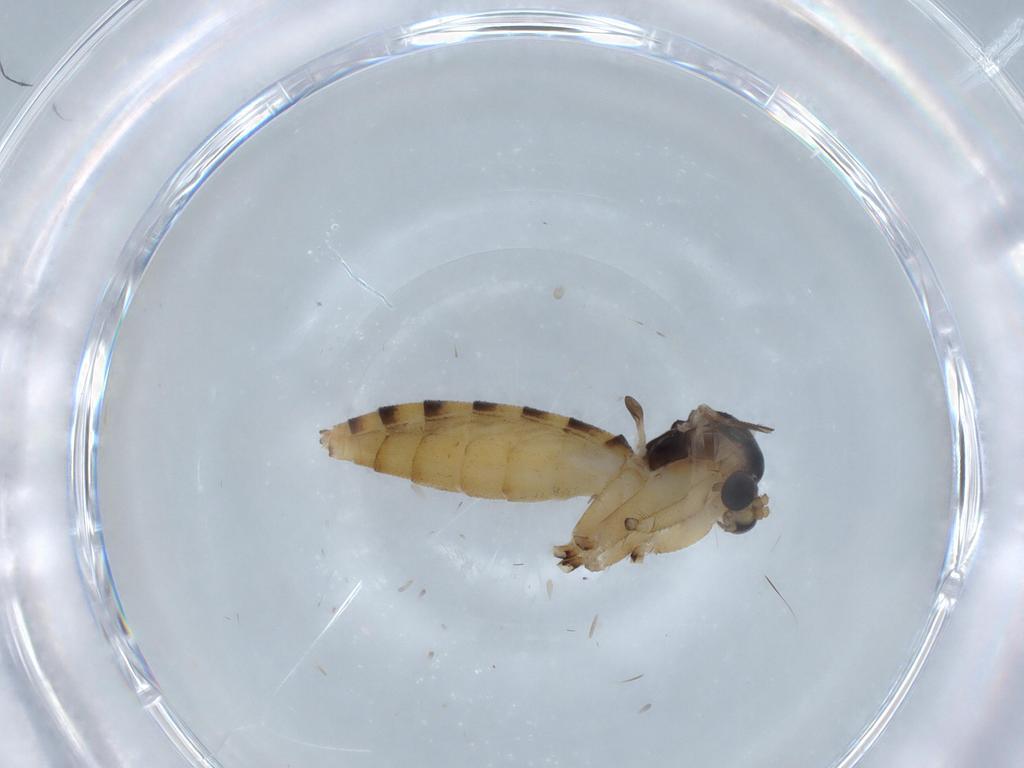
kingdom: Animalia
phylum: Arthropoda
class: Insecta
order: Diptera
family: Mycetophilidae
